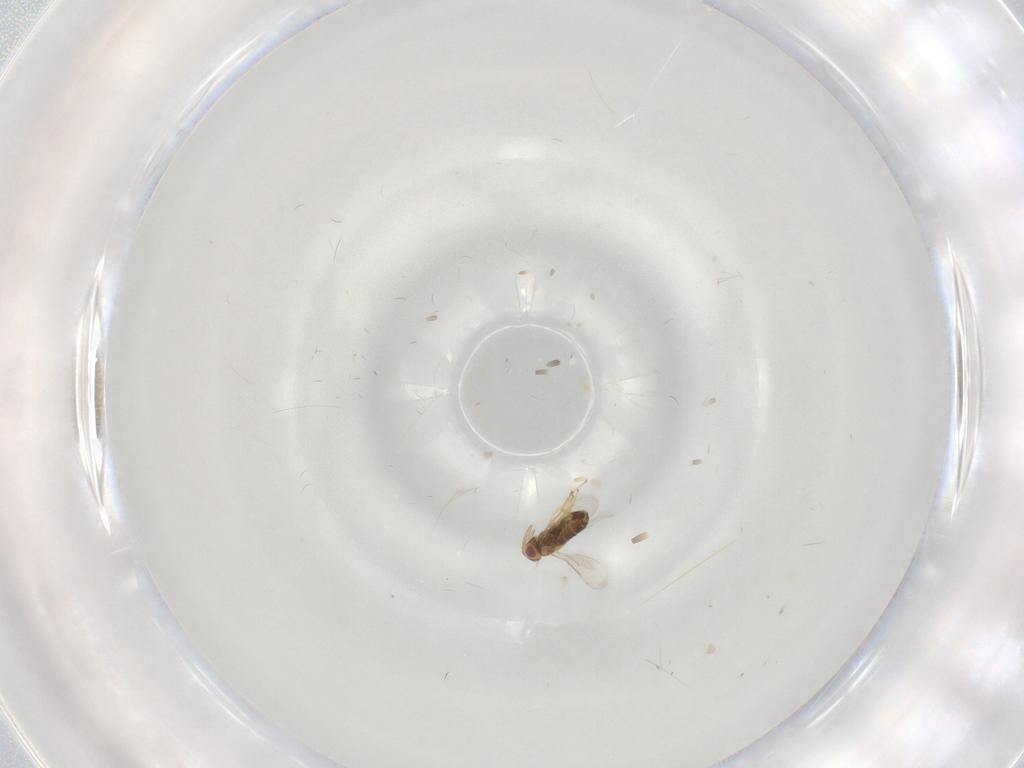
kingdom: Animalia
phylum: Arthropoda
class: Insecta
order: Hymenoptera
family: Aphelinidae
